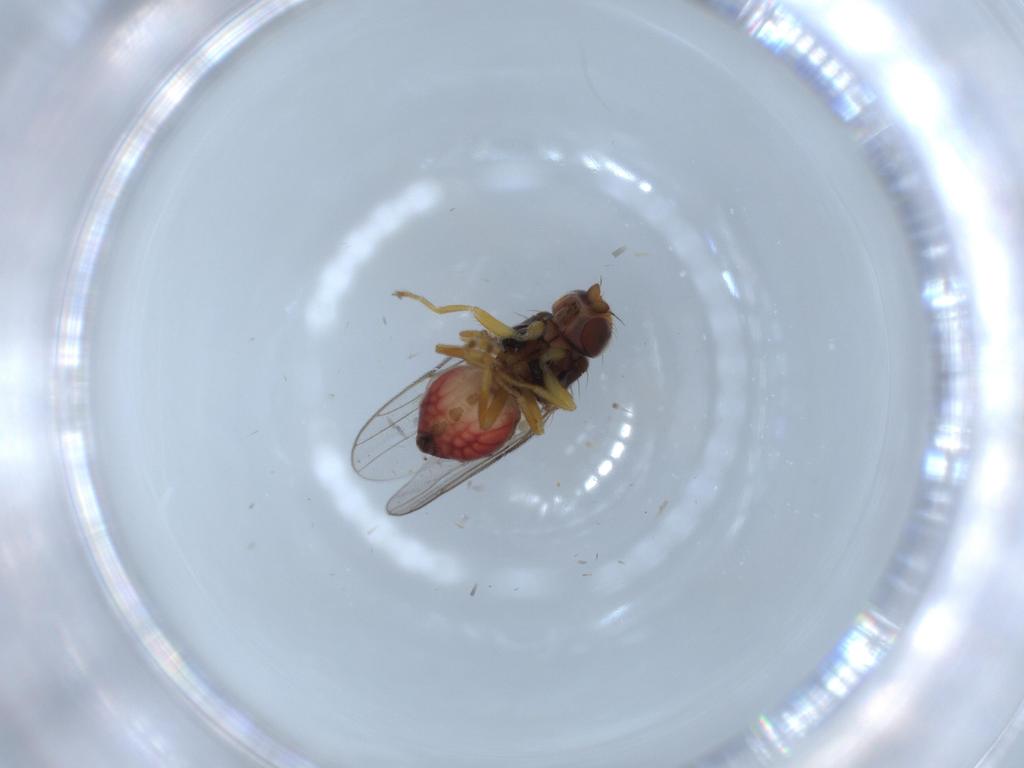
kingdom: Animalia
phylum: Arthropoda
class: Insecta
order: Diptera
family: Chloropidae
